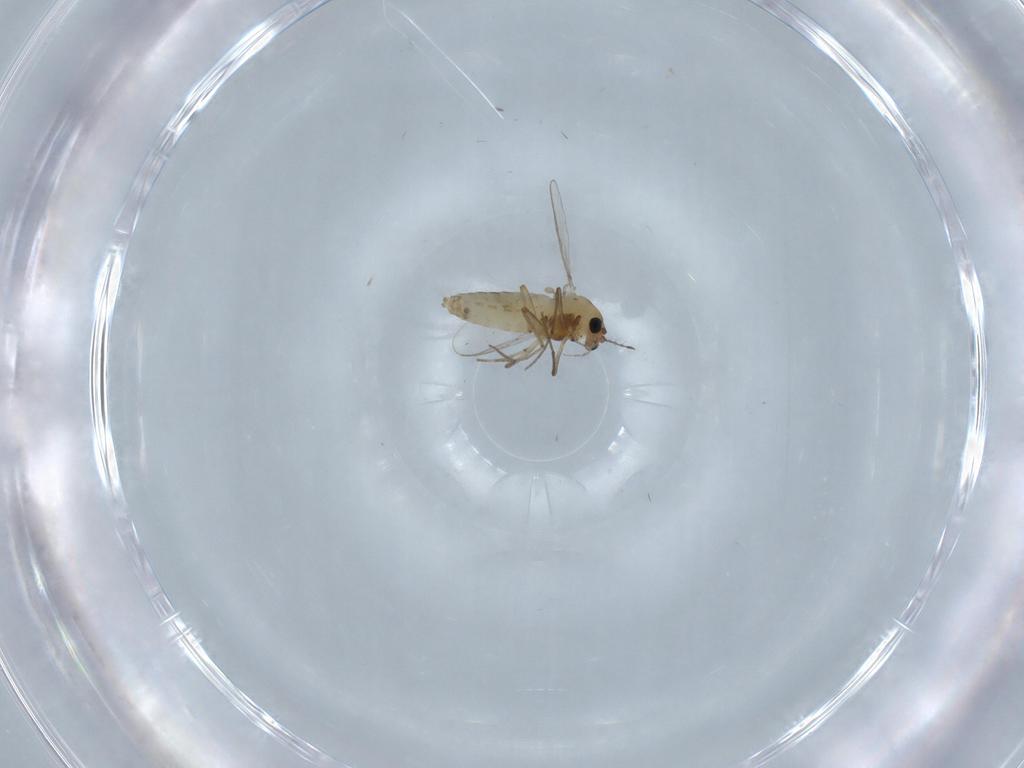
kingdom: Animalia
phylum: Arthropoda
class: Insecta
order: Diptera
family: Chironomidae
